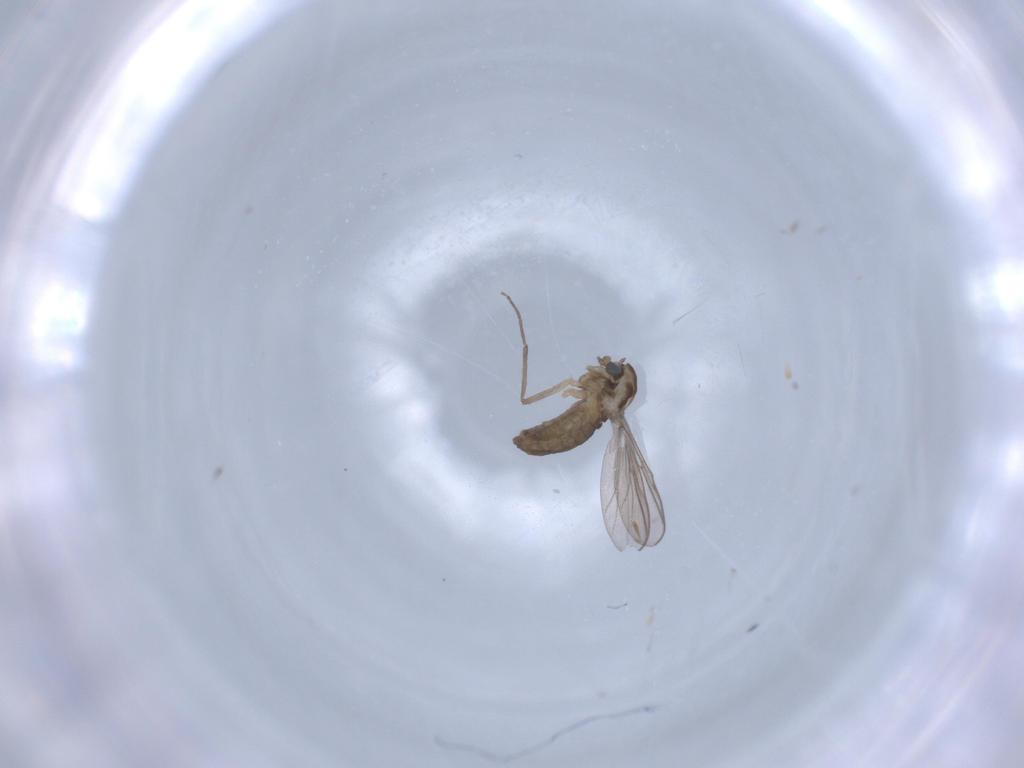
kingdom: Animalia
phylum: Arthropoda
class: Insecta
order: Diptera
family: Chironomidae
